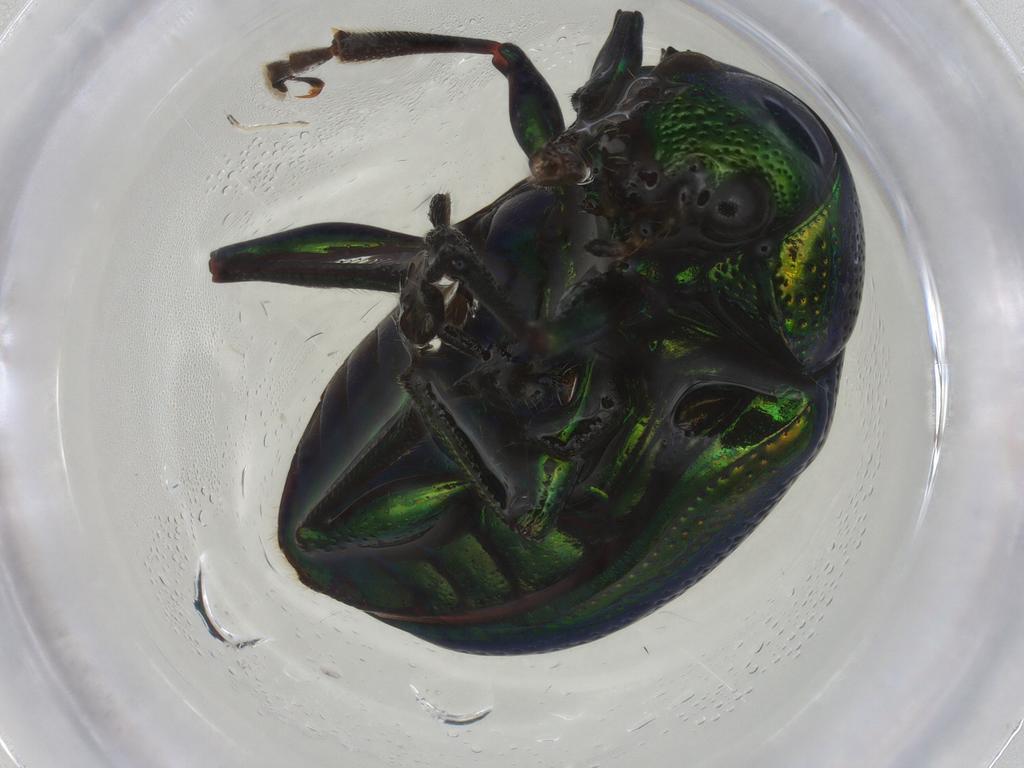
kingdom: Animalia
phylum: Arthropoda
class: Insecta
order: Coleoptera
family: Chrysomelidae
